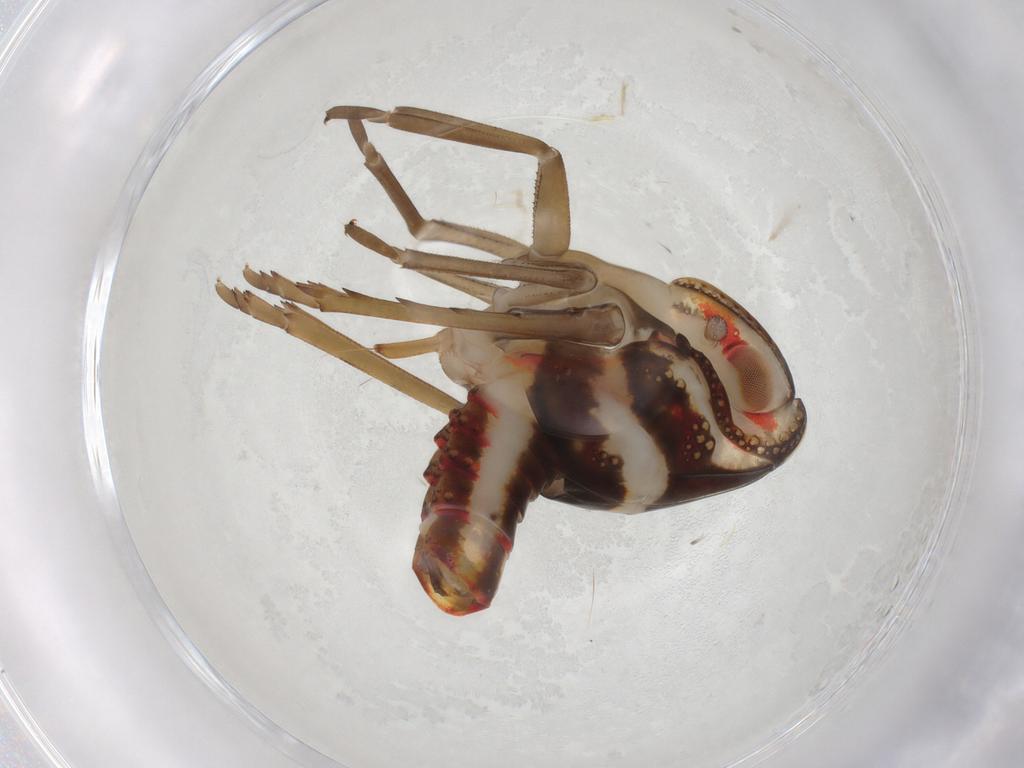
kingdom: Animalia
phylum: Arthropoda
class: Insecta
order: Hemiptera
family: Nogodinidae
